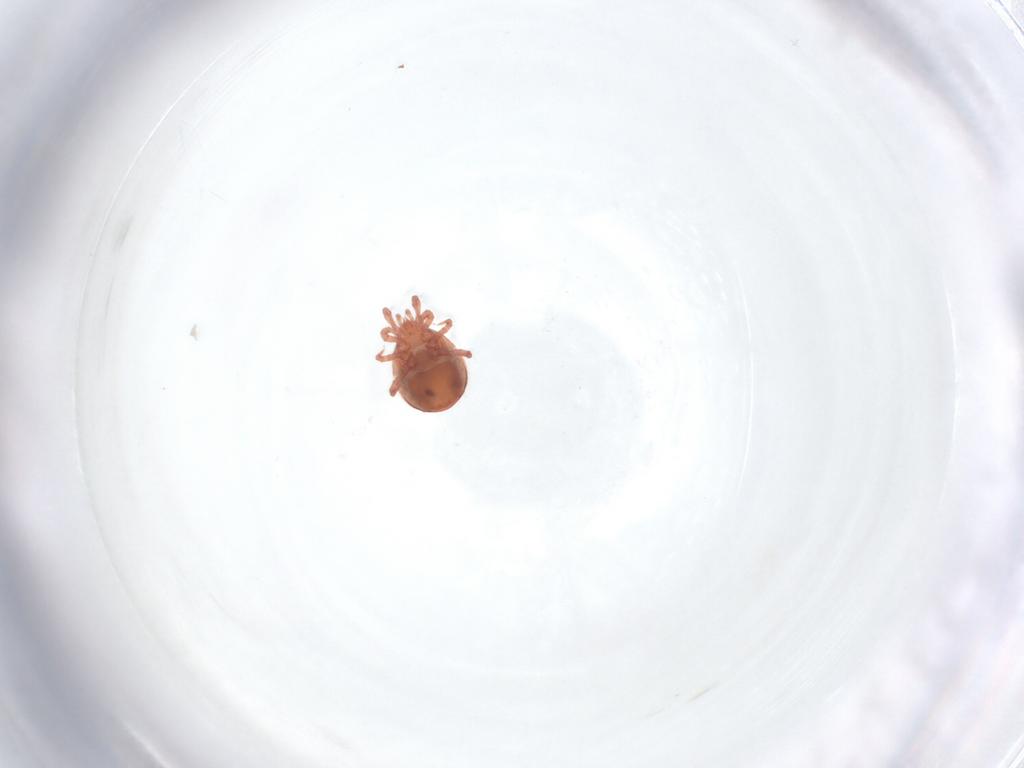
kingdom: Animalia
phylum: Arthropoda
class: Arachnida
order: Mesostigmata
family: Zerconidae
